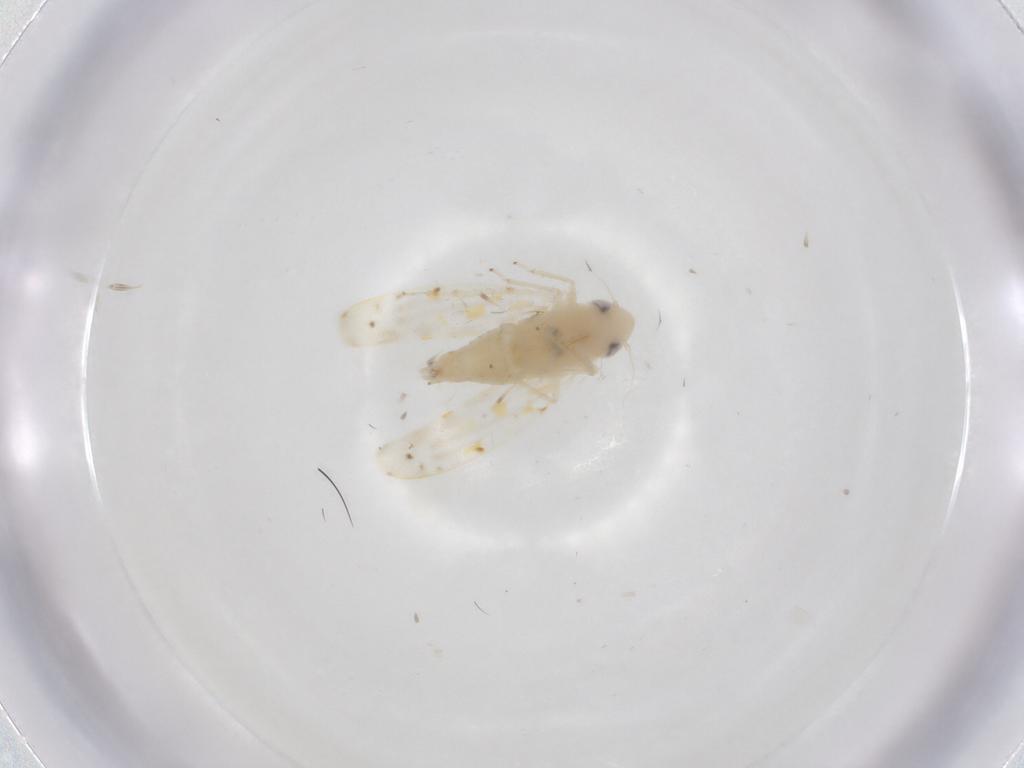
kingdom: Animalia
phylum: Arthropoda
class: Insecta
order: Hemiptera
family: Cicadellidae
